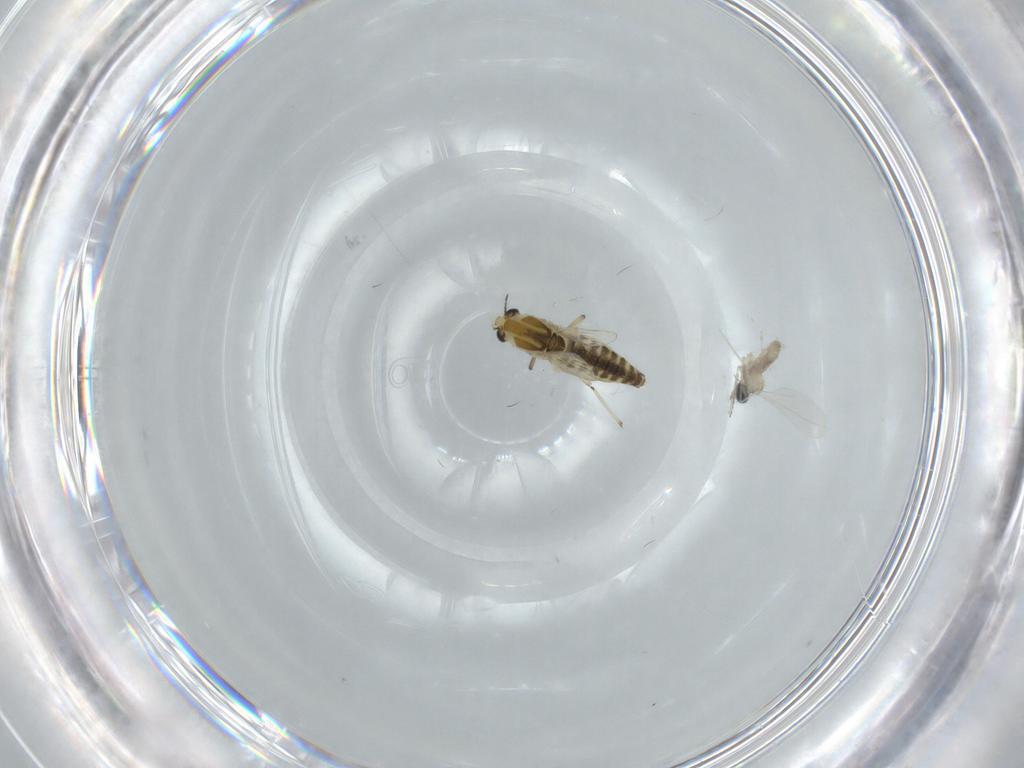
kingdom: Animalia
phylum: Arthropoda
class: Insecta
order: Diptera
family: Chironomidae
